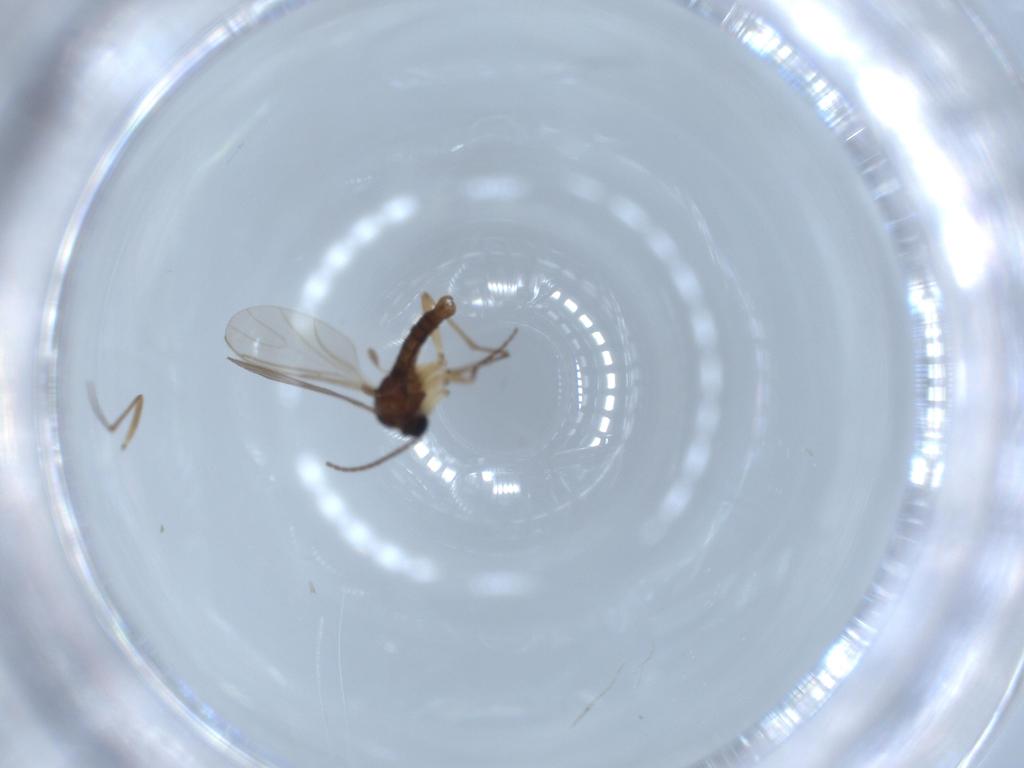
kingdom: Animalia
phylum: Arthropoda
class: Insecta
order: Diptera
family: Sciaridae
